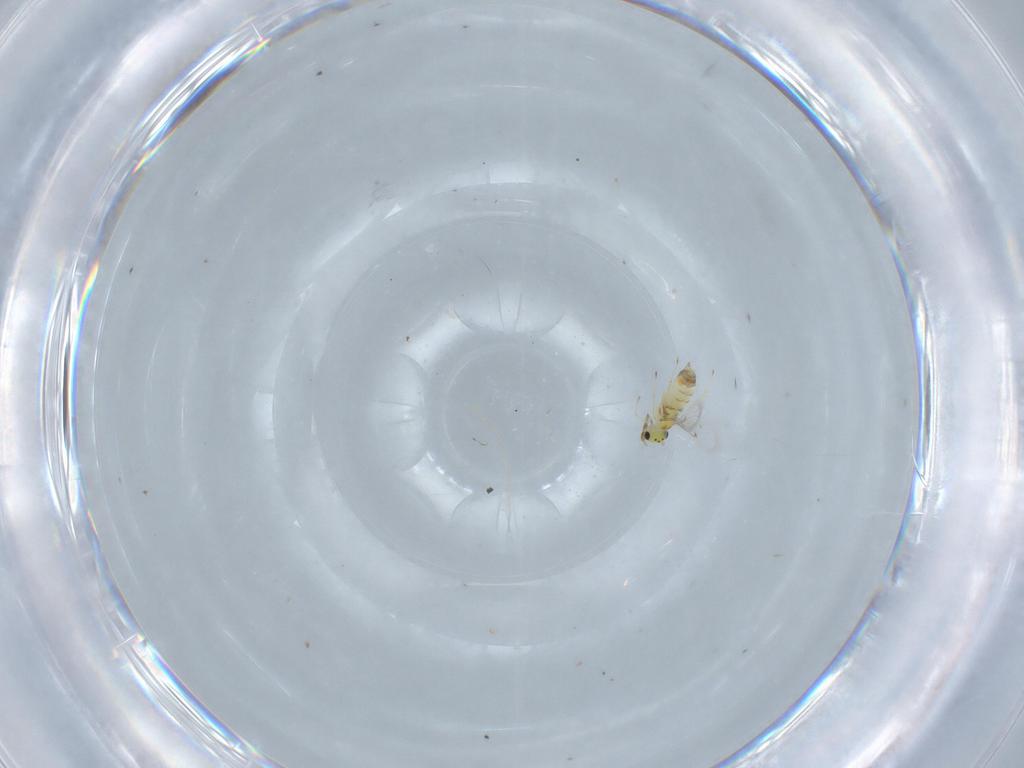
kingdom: Animalia
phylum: Arthropoda
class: Insecta
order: Hymenoptera
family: Trichogrammatidae
